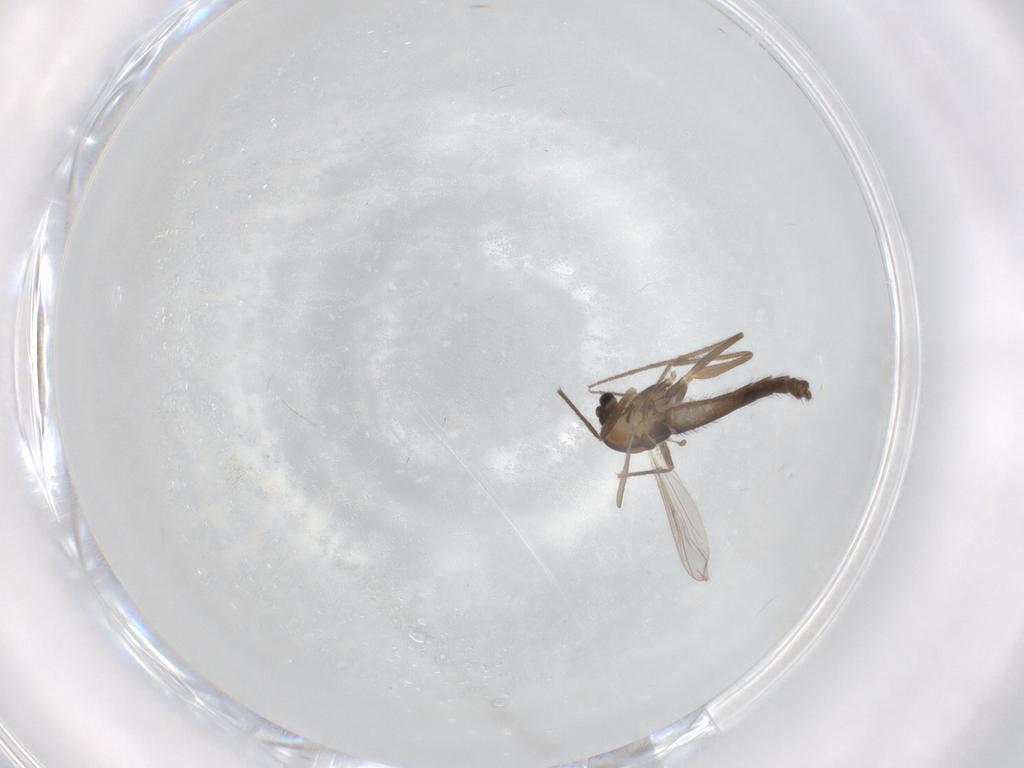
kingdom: Animalia
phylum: Arthropoda
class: Insecta
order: Diptera
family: Chironomidae
